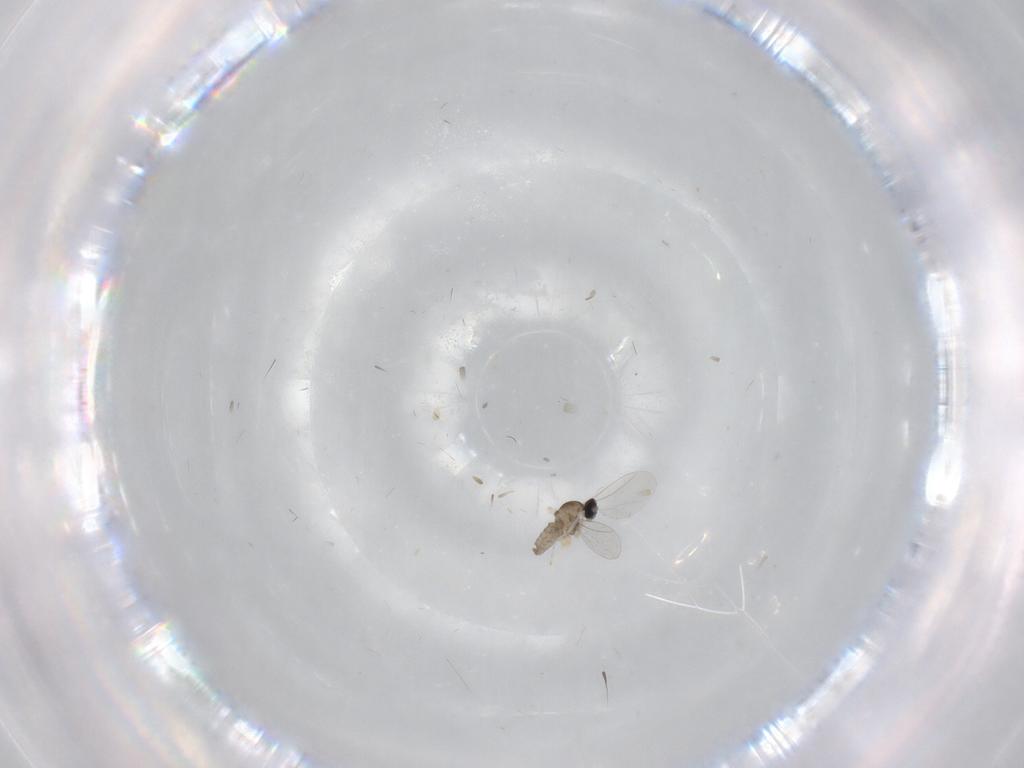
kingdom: Animalia
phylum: Arthropoda
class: Insecta
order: Diptera
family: Cecidomyiidae
